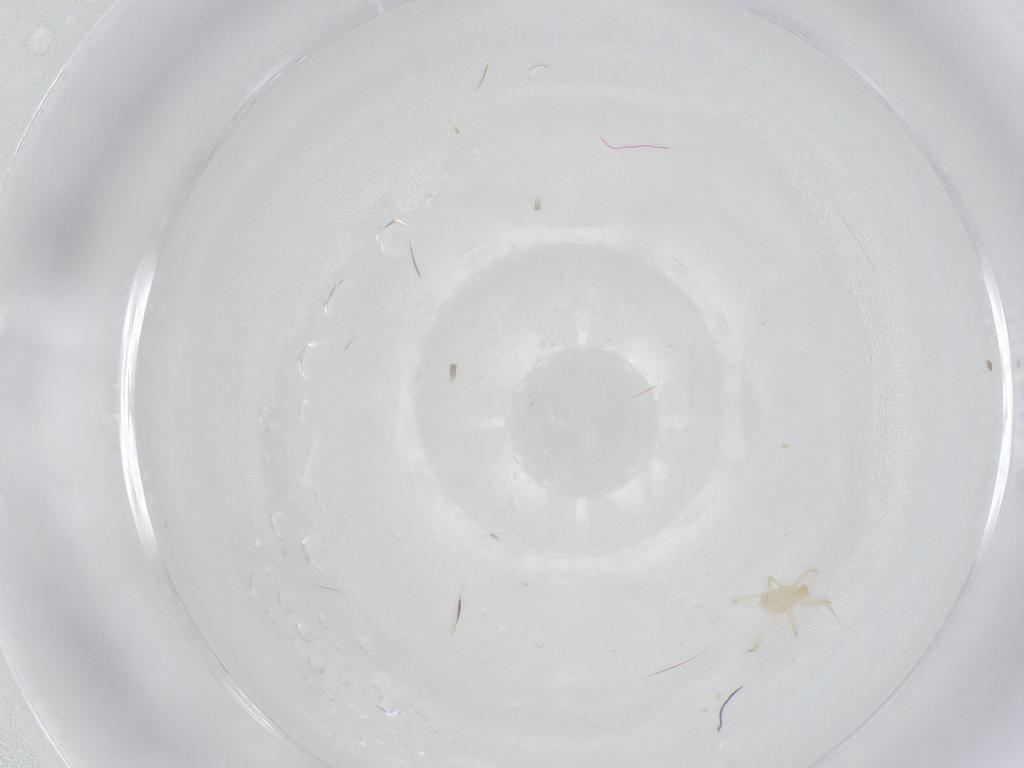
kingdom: Animalia
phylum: Arthropoda
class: Arachnida
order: Trombidiformes
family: Erythraeidae
